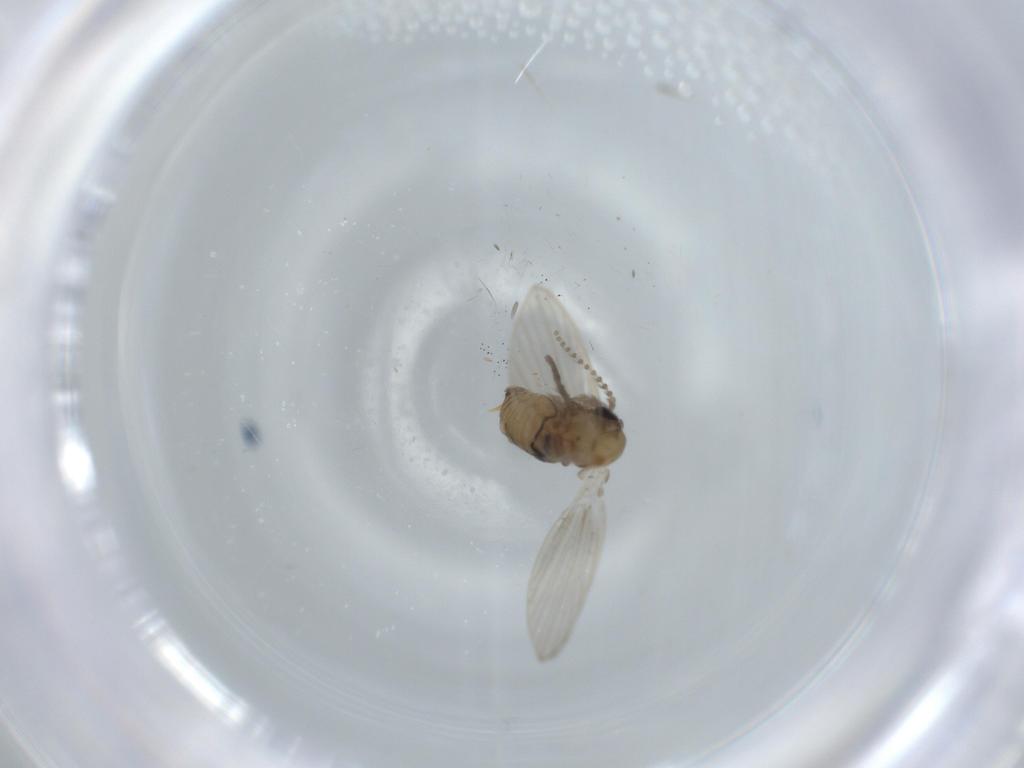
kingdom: Animalia
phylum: Arthropoda
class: Insecta
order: Diptera
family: Psychodidae
